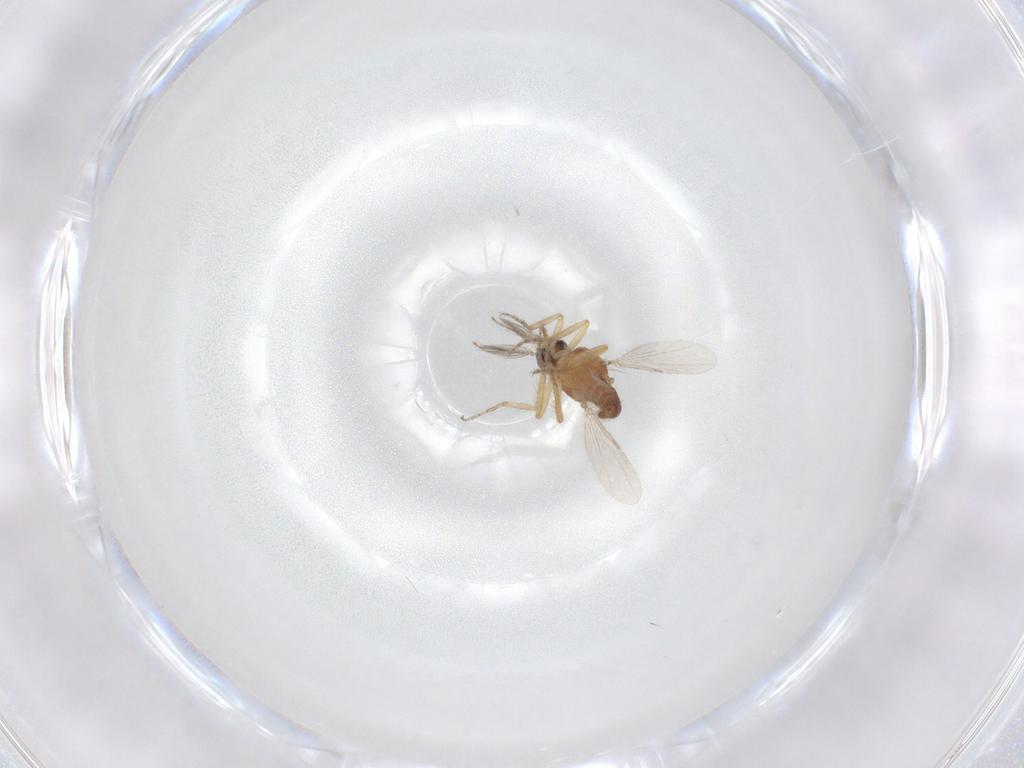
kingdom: Animalia
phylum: Arthropoda
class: Insecta
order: Diptera
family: Ceratopogonidae
